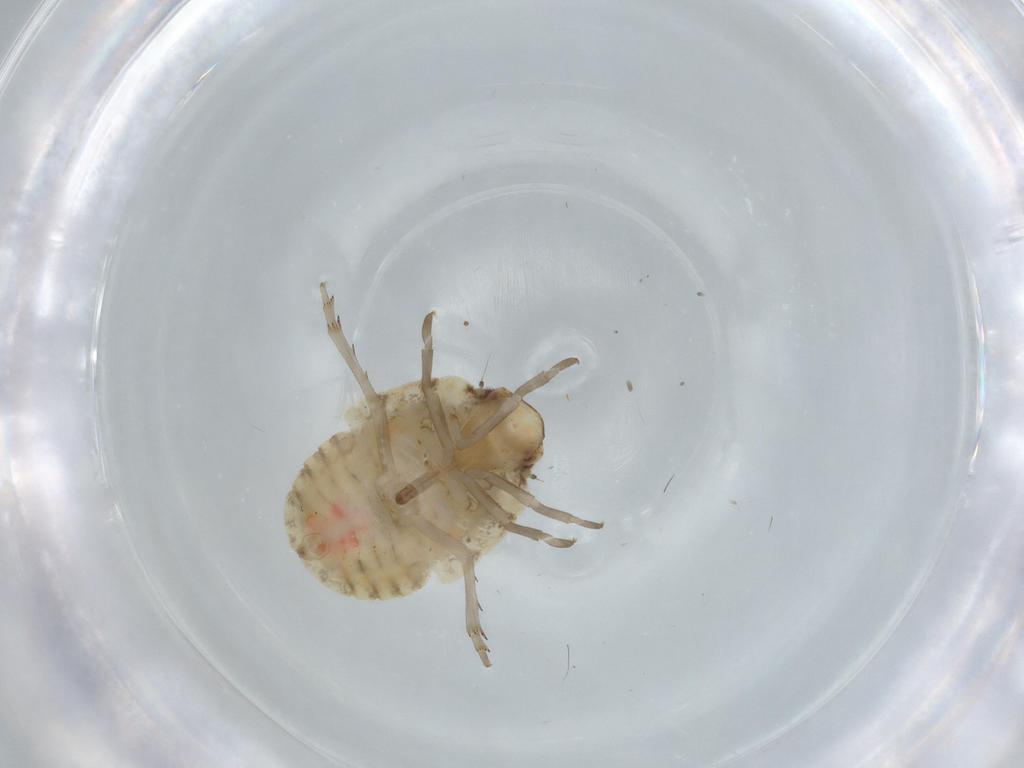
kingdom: Animalia
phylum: Arthropoda
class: Insecta
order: Hemiptera
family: Flatidae
